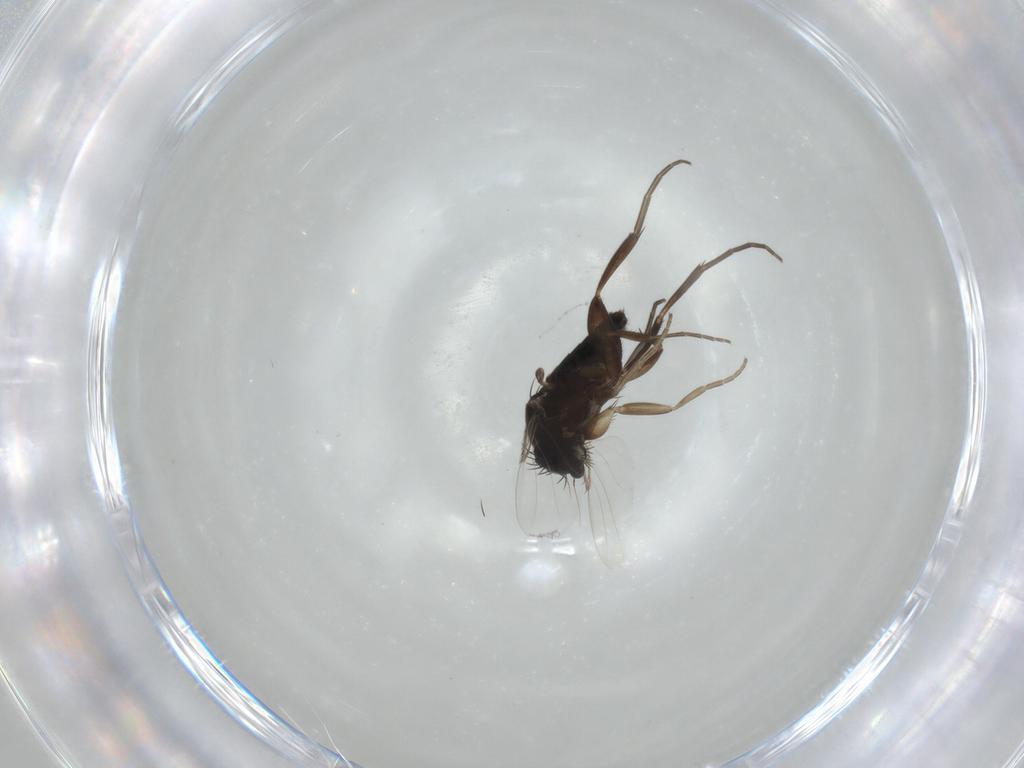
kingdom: Animalia
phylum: Arthropoda
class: Insecta
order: Diptera
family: Phoridae
